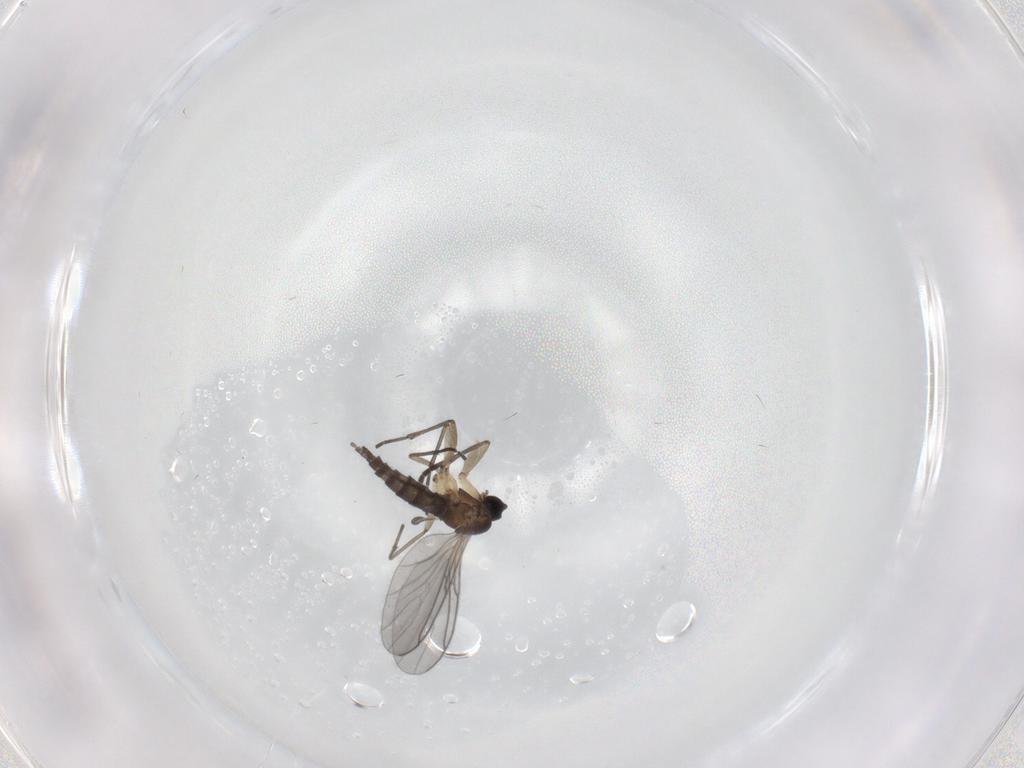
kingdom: Animalia
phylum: Arthropoda
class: Insecta
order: Diptera
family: Sciaridae
